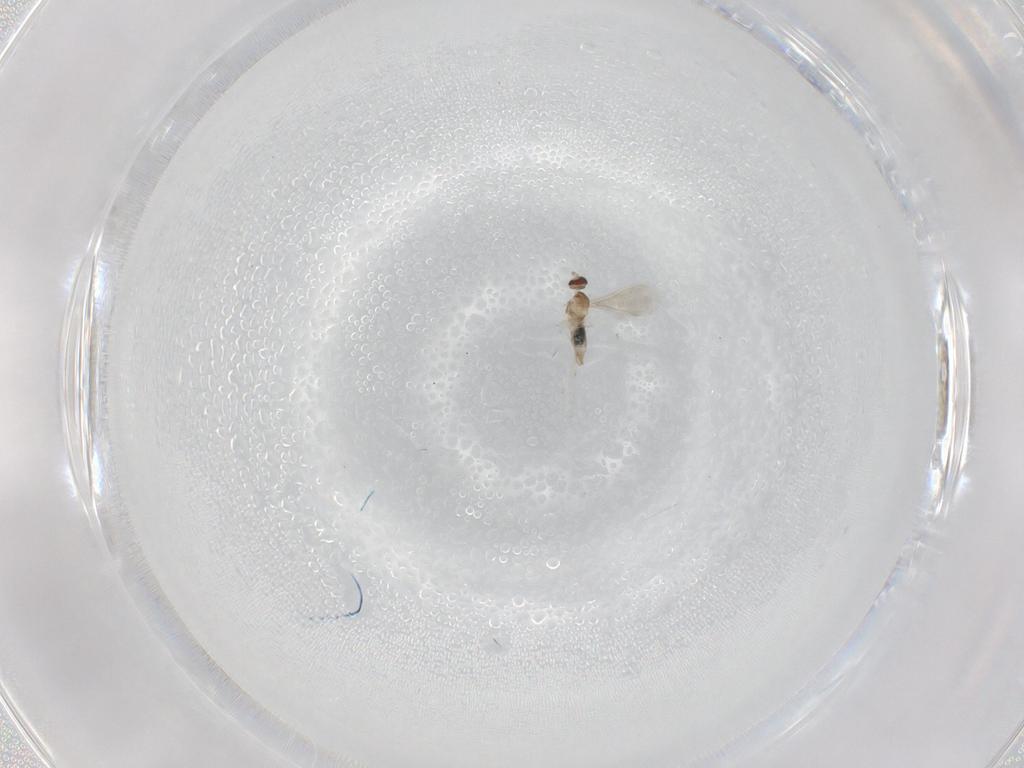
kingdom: Animalia
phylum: Arthropoda
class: Insecta
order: Diptera
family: Cecidomyiidae
